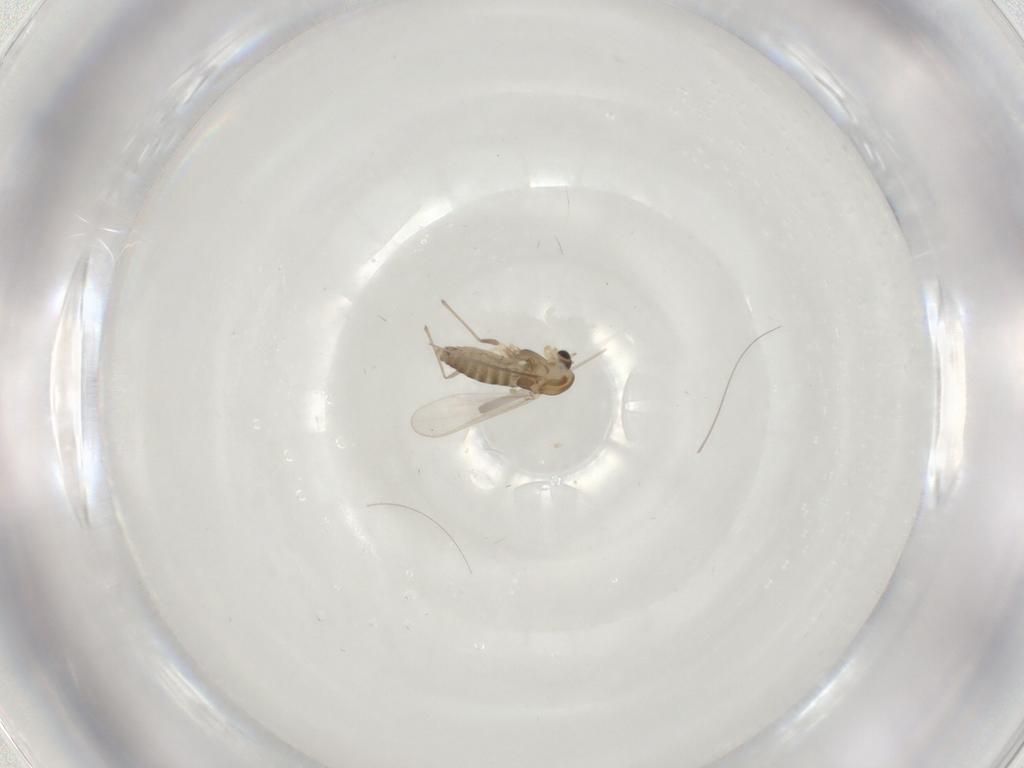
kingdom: Animalia
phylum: Arthropoda
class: Insecta
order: Diptera
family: Chironomidae
